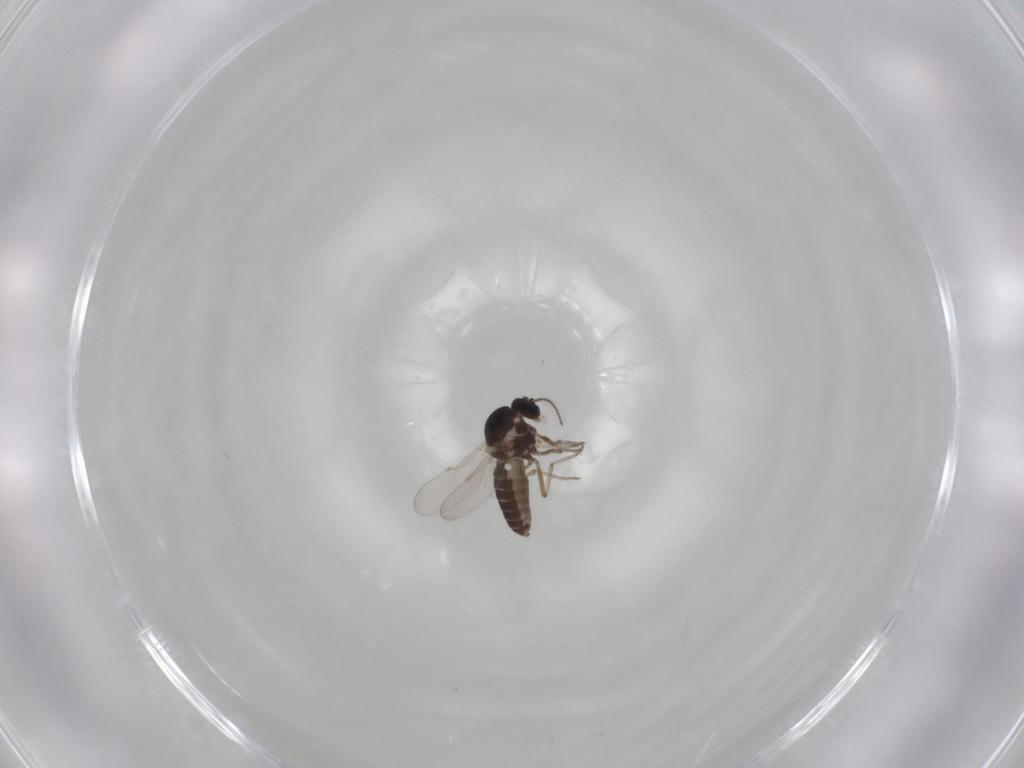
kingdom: Animalia
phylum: Arthropoda
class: Insecta
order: Diptera
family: Ceratopogonidae
